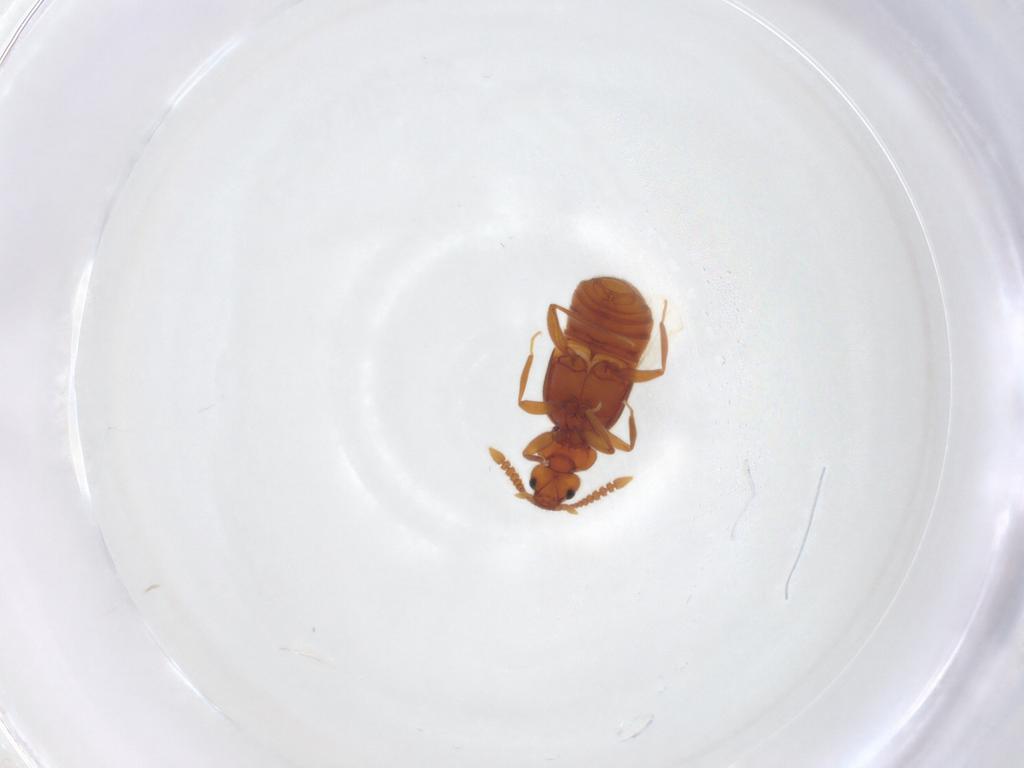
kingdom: Animalia
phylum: Arthropoda
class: Insecta
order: Coleoptera
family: Staphylinidae
